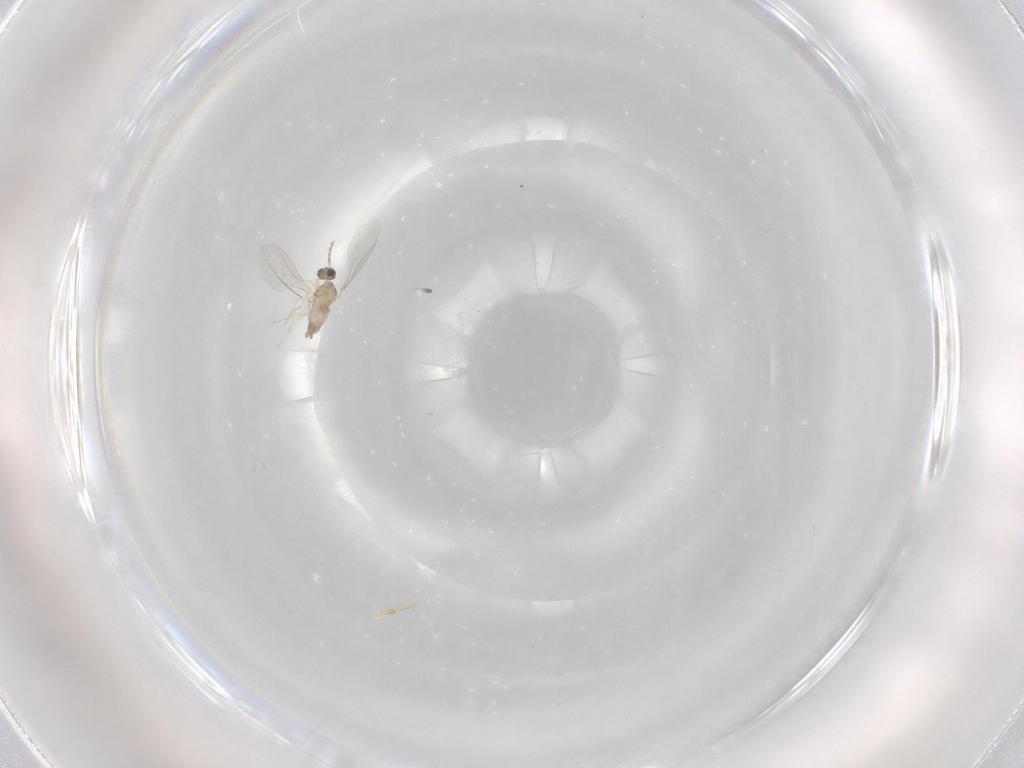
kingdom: Animalia
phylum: Arthropoda
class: Insecta
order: Diptera
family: Cecidomyiidae
